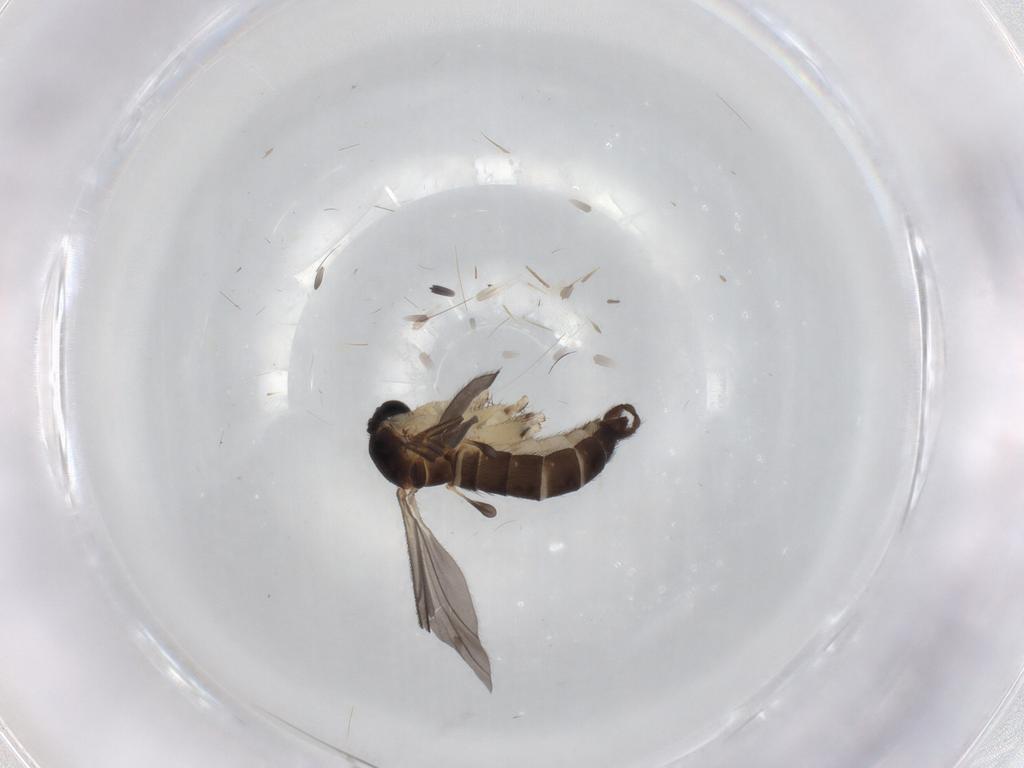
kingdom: Animalia
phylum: Arthropoda
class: Insecta
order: Diptera
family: Sciaridae
